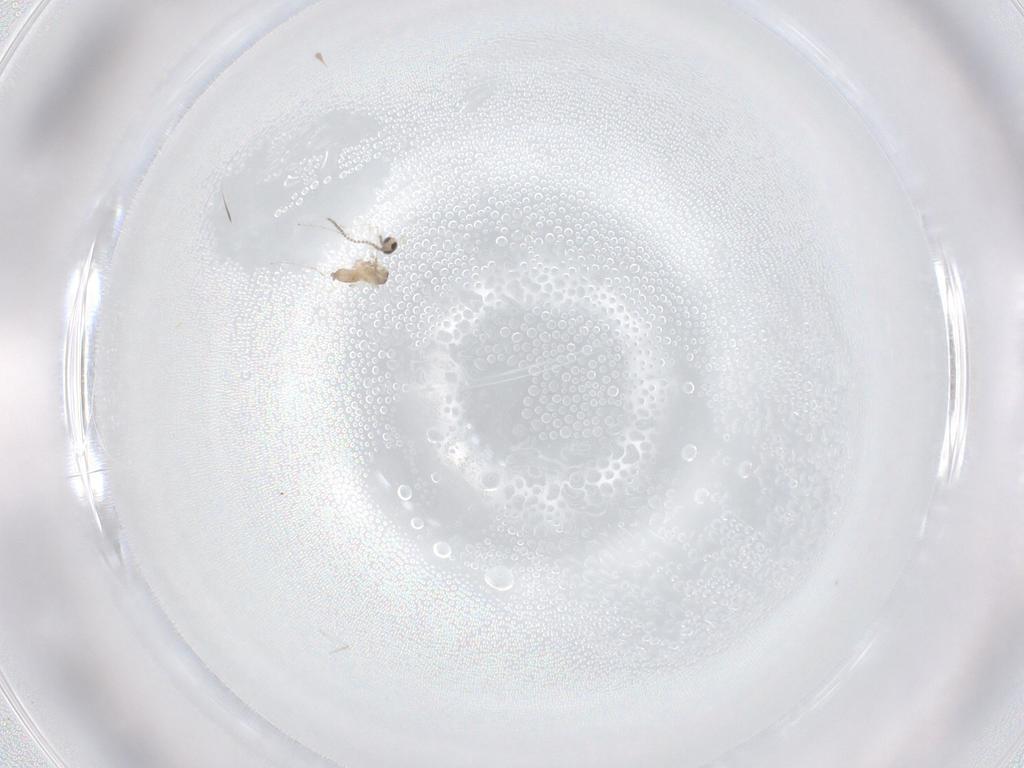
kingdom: Animalia
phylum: Arthropoda
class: Insecta
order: Diptera
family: Cecidomyiidae
